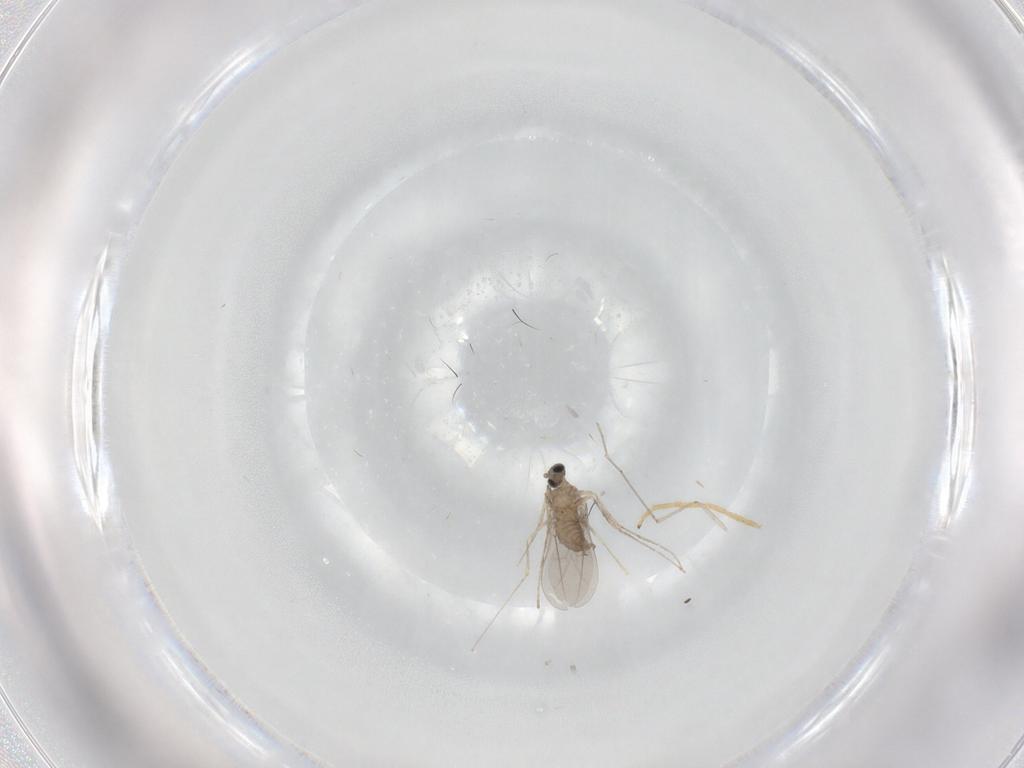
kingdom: Animalia
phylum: Arthropoda
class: Insecta
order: Diptera
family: Cecidomyiidae
